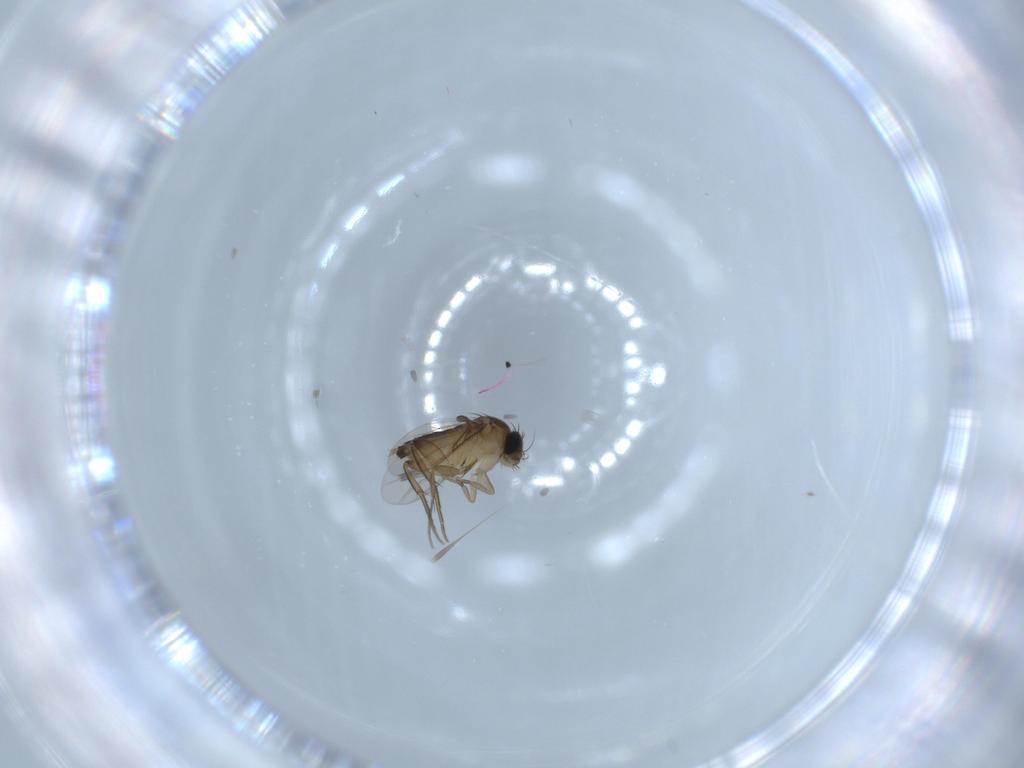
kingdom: Animalia
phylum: Arthropoda
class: Insecta
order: Diptera
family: Phoridae
